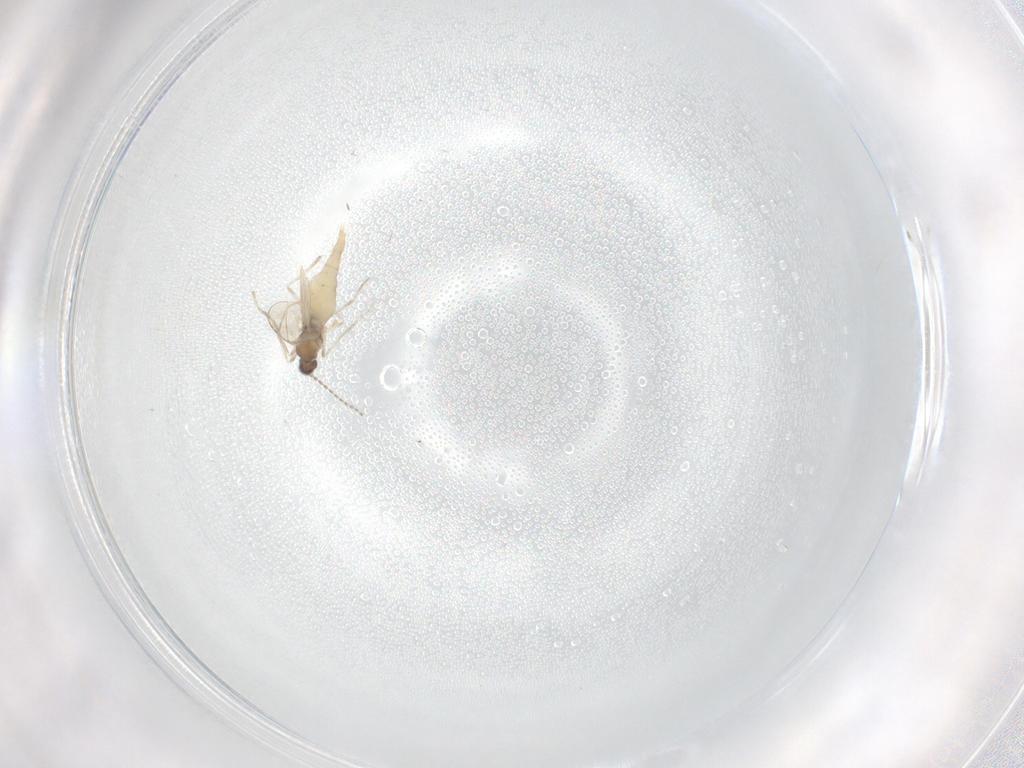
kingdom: Animalia
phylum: Arthropoda
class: Insecta
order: Diptera
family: Cecidomyiidae
